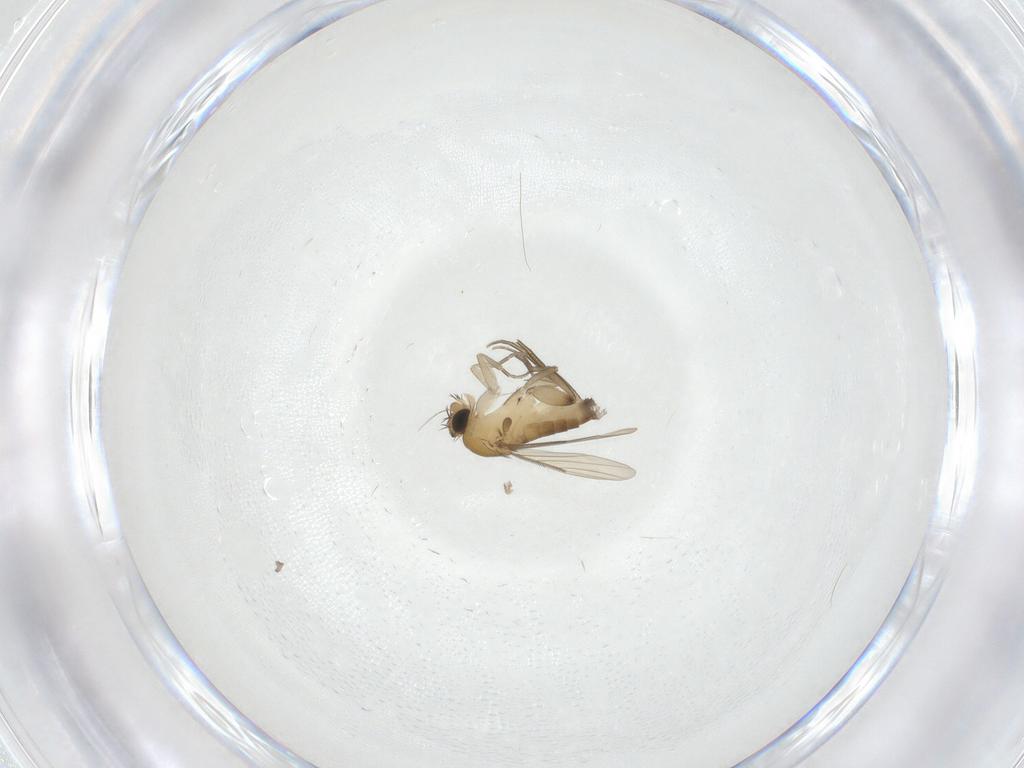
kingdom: Animalia
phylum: Arthropoda
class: Insecta
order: Diptera
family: Phoridae
